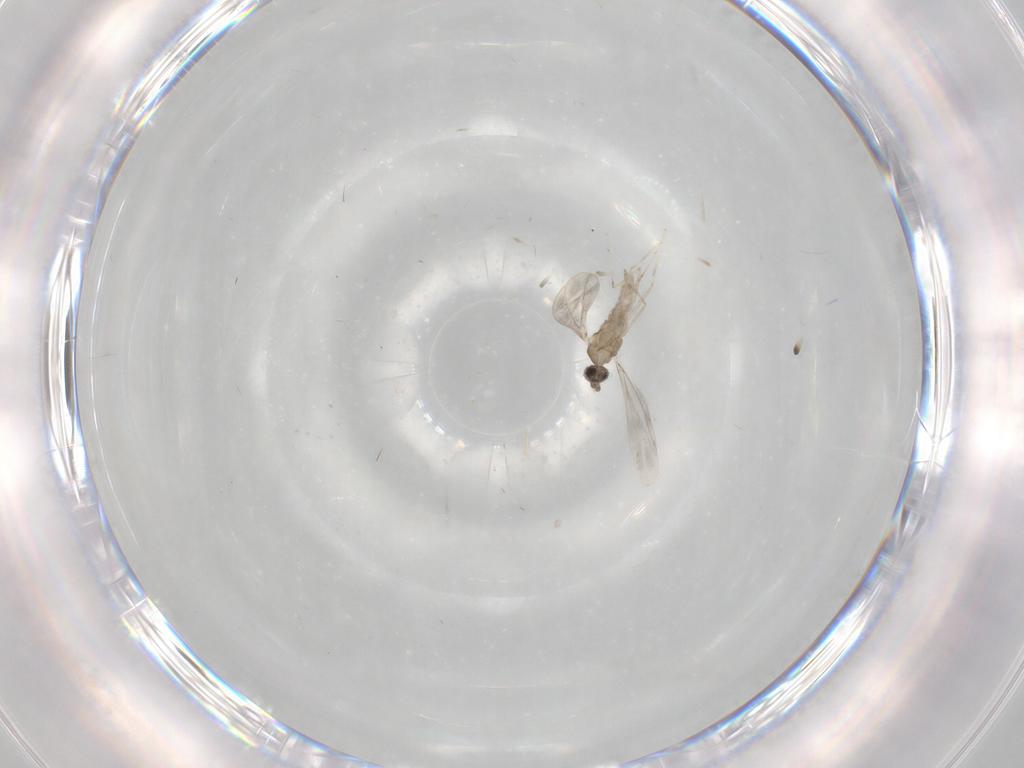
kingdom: Animalia
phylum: Arthropoda
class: Insecta
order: Diptera
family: Cecidomyiidae
